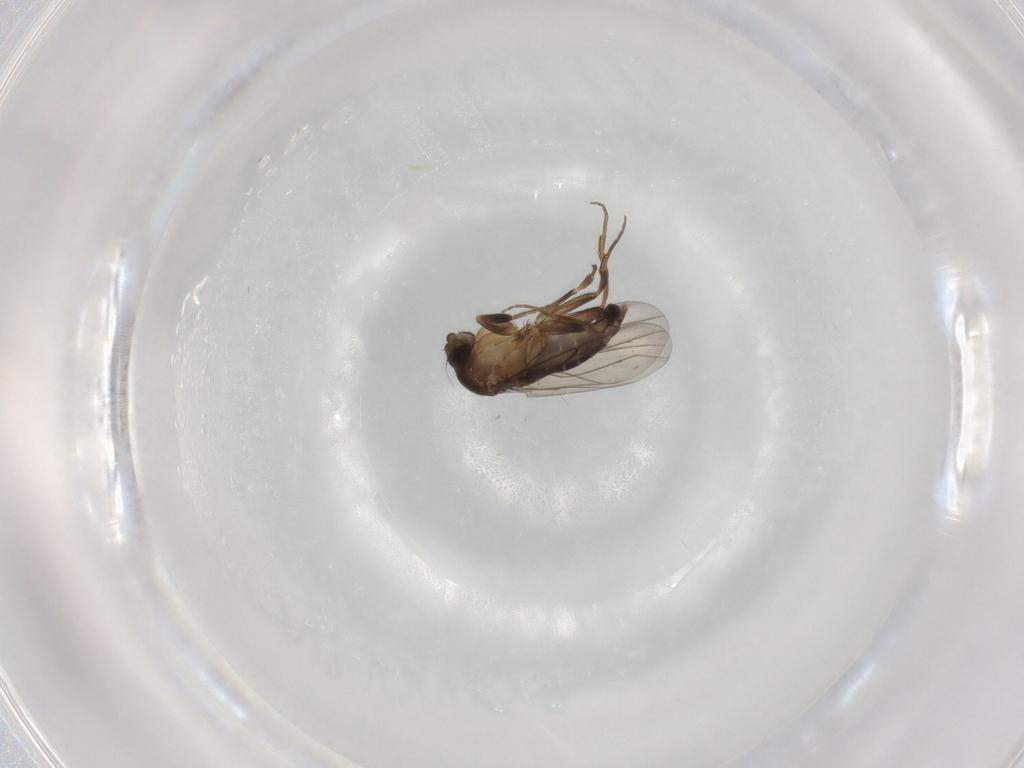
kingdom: Animalia
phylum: Arthropoda
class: Insecta
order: Diptera
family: Phoridae
